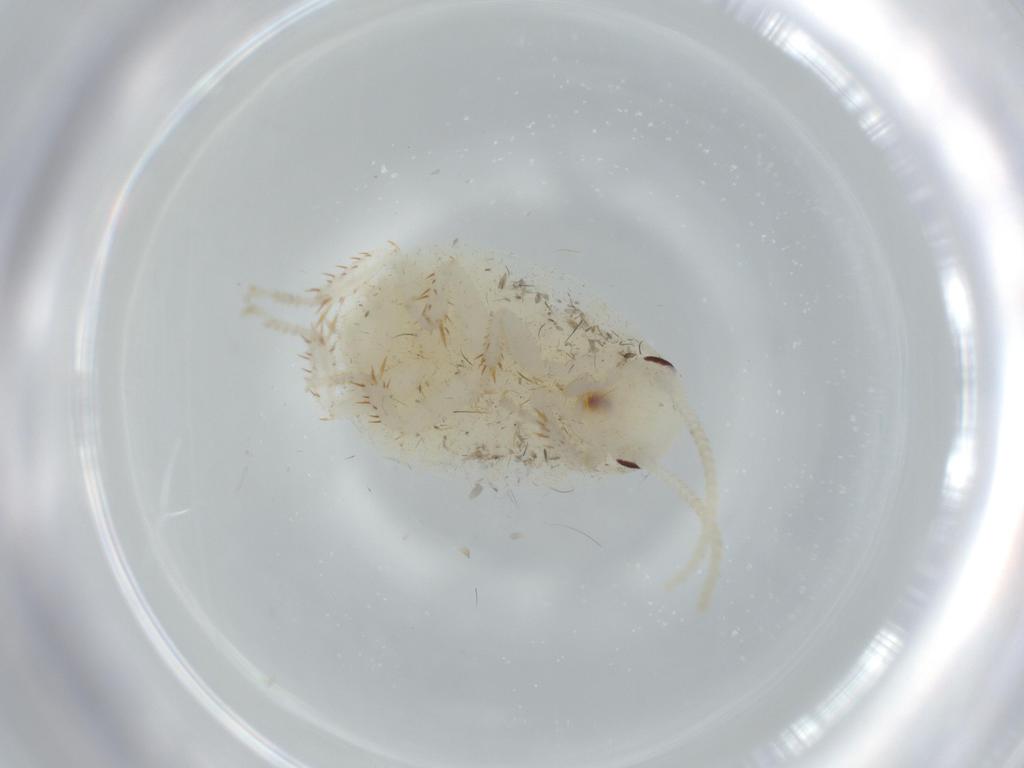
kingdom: Animalia
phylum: Arthropoda
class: Insecta
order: Blattodea
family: Blaberidae
